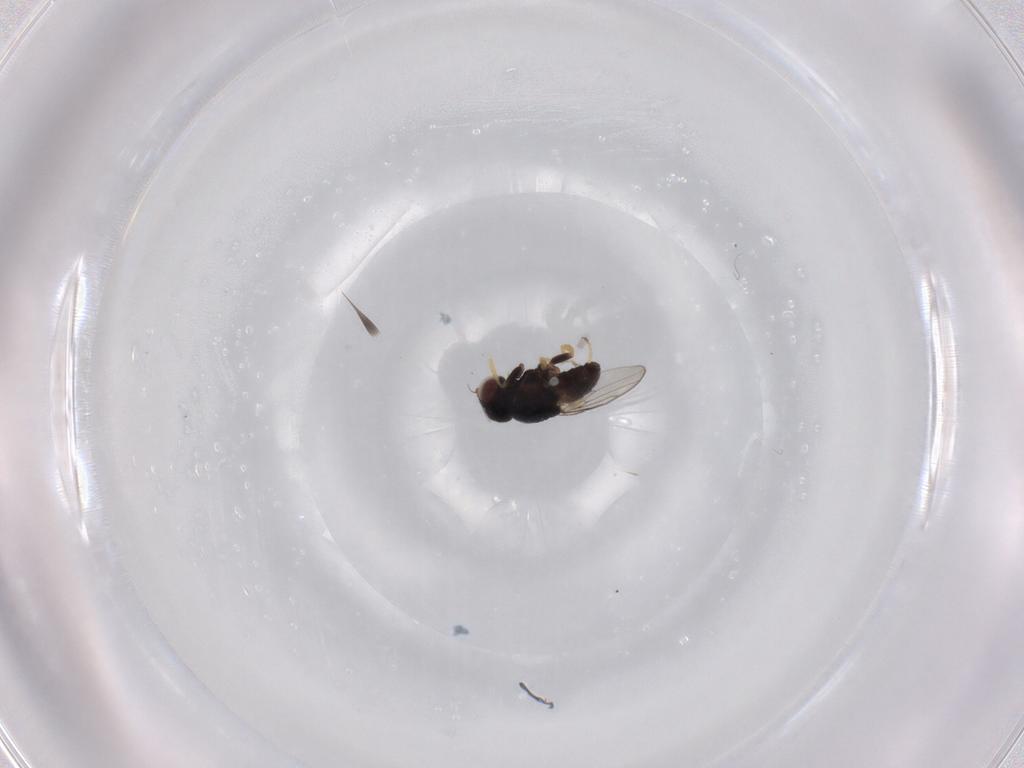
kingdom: Animalia
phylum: Arthropoda
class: Insecta
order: Diptera
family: Chloropidae
